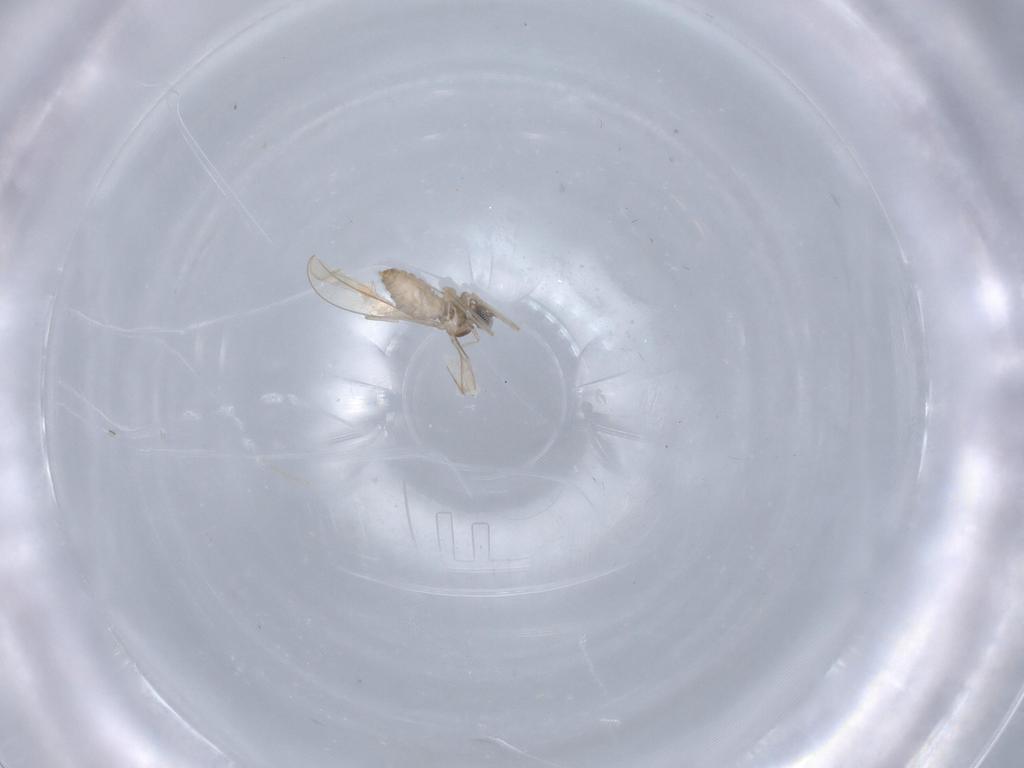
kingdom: Animalia
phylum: Arthropoda
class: Insecta
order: Diptera
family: Cecidomyiidae
